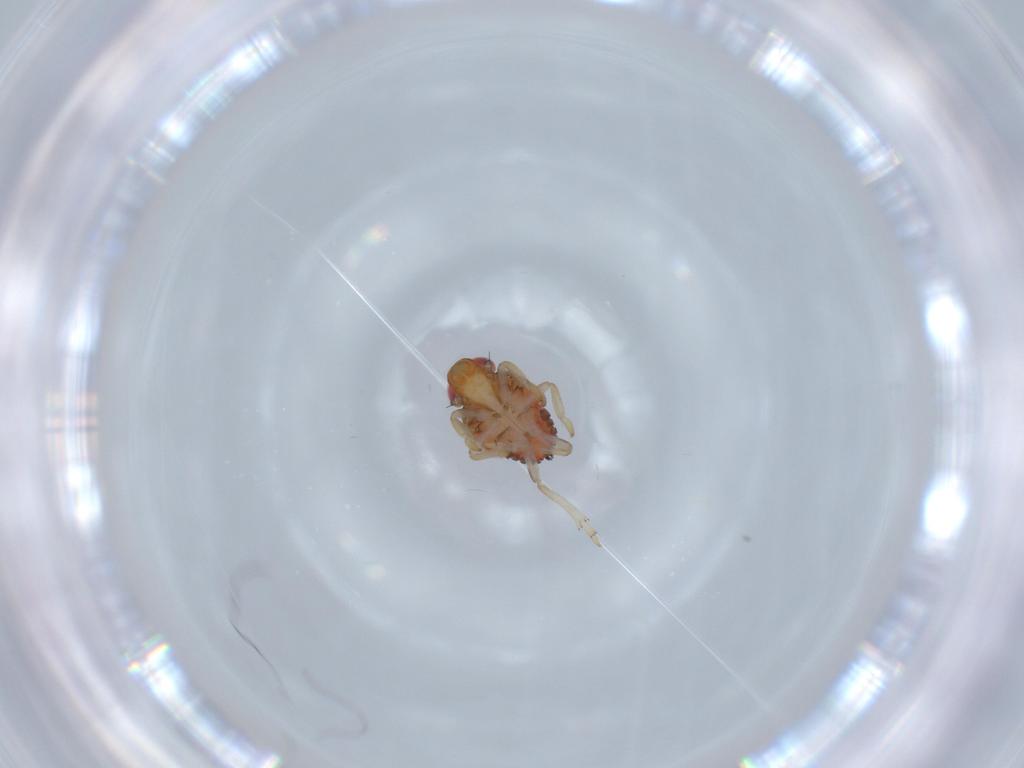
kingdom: Animalia
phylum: Arthropoda
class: Insecta
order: Hemiptera
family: Issidae
